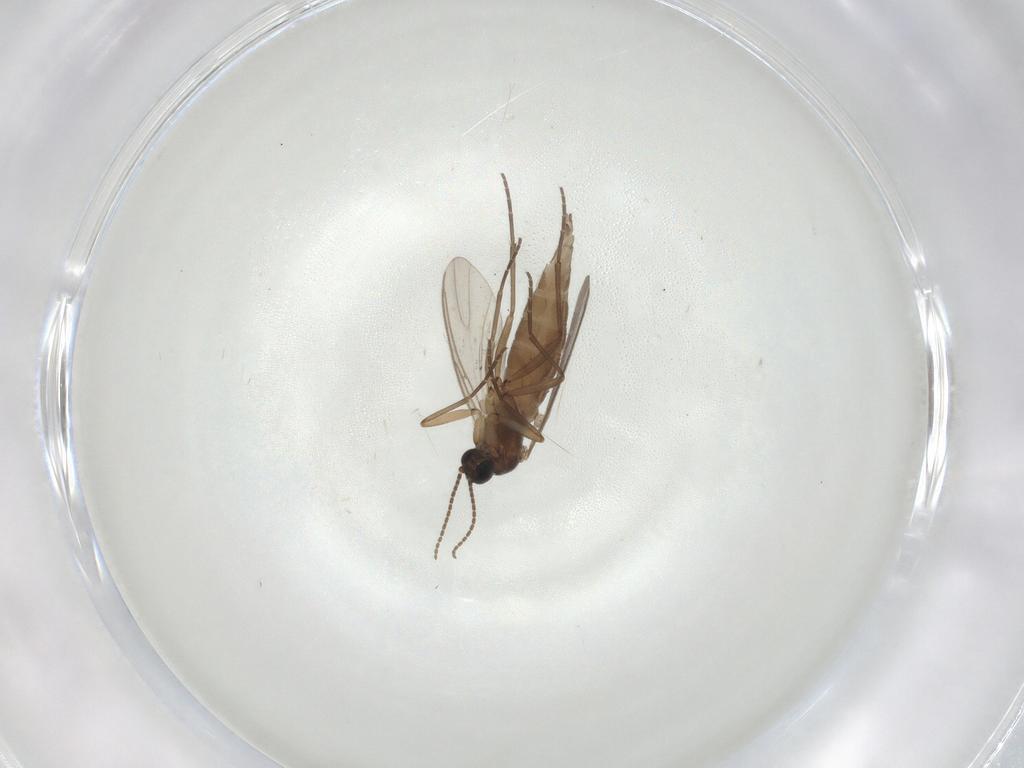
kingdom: Animalia
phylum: Arthropoda
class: Insecta
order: Diptera
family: Sciaridae
